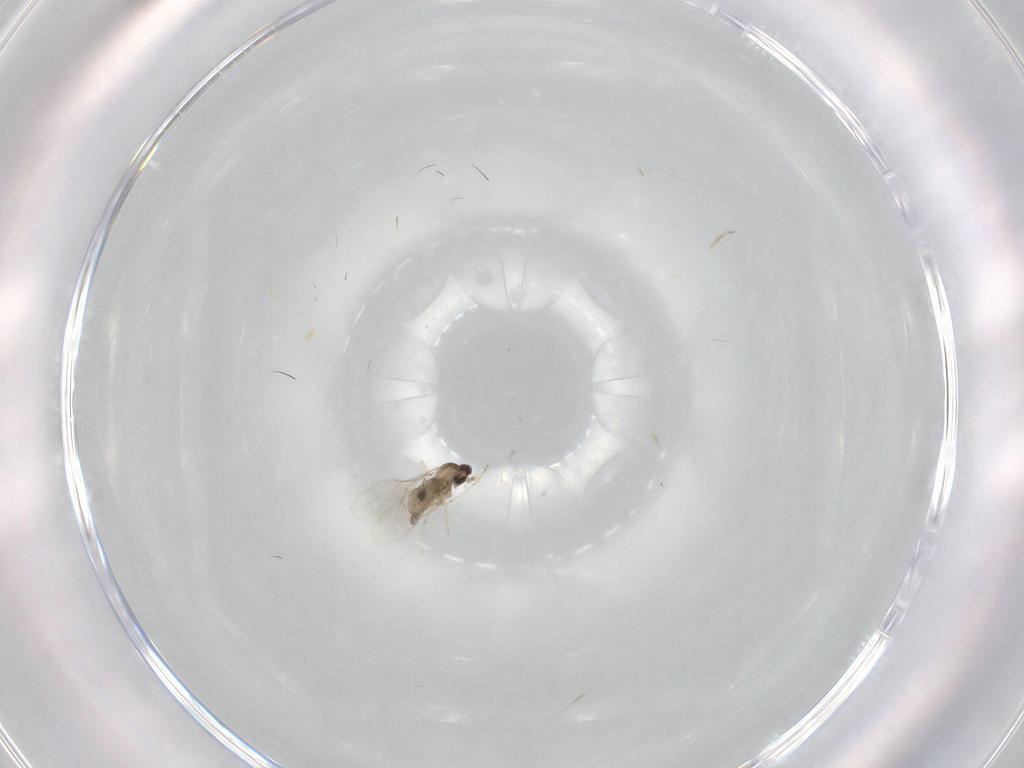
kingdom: Animalia
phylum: Arthropoda
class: Insecta
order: Diptera
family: Cecidomyiidae
